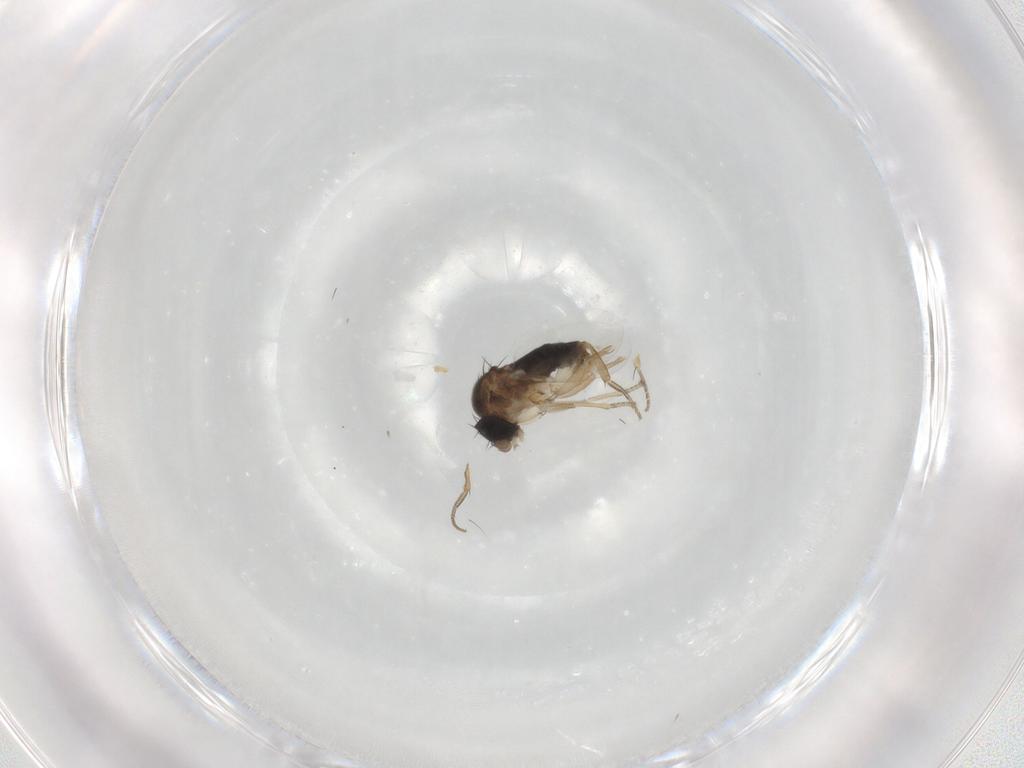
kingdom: Animalia
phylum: Arthropoda
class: Insecta
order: Diptera
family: Phoridae
